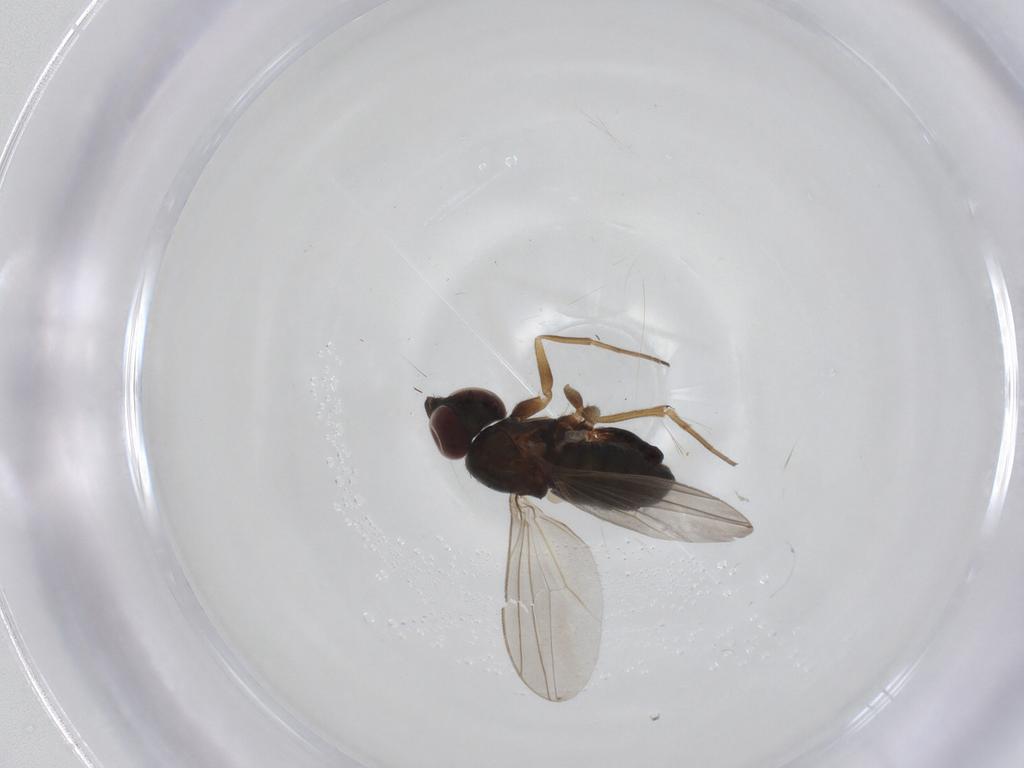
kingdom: Animalia
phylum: Arthropoda
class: Insecta
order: Diptera
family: Dolichopodidae
